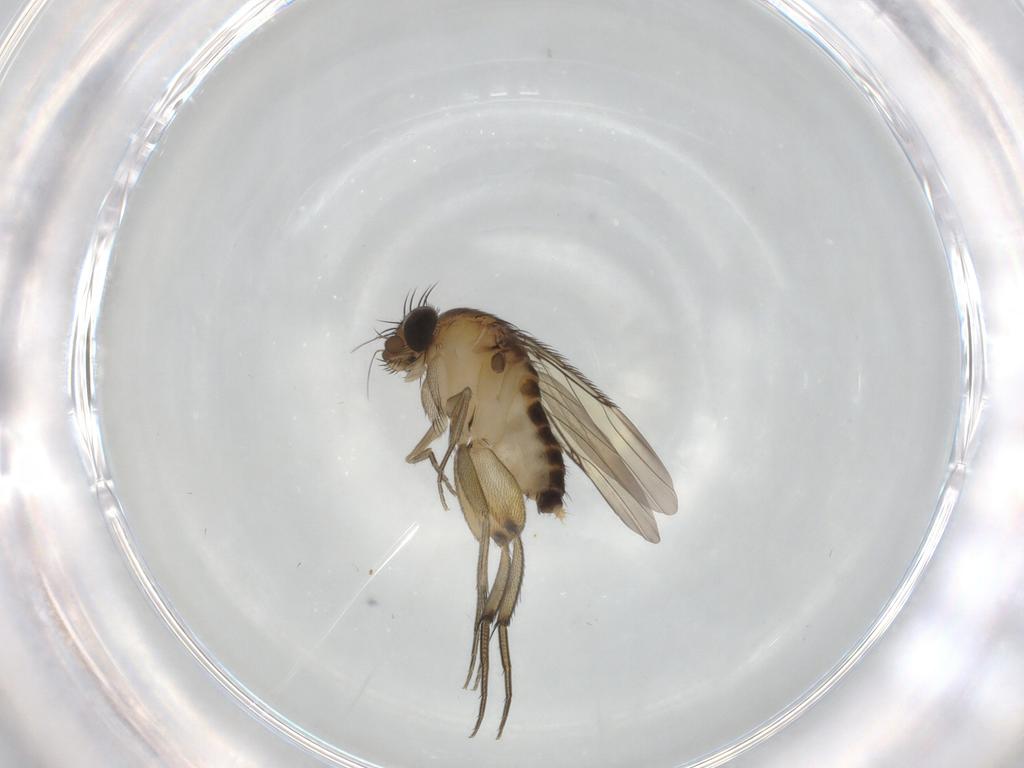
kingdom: Animalia
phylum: Arthropoda
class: Insecta
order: Diptera
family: Phoridae
